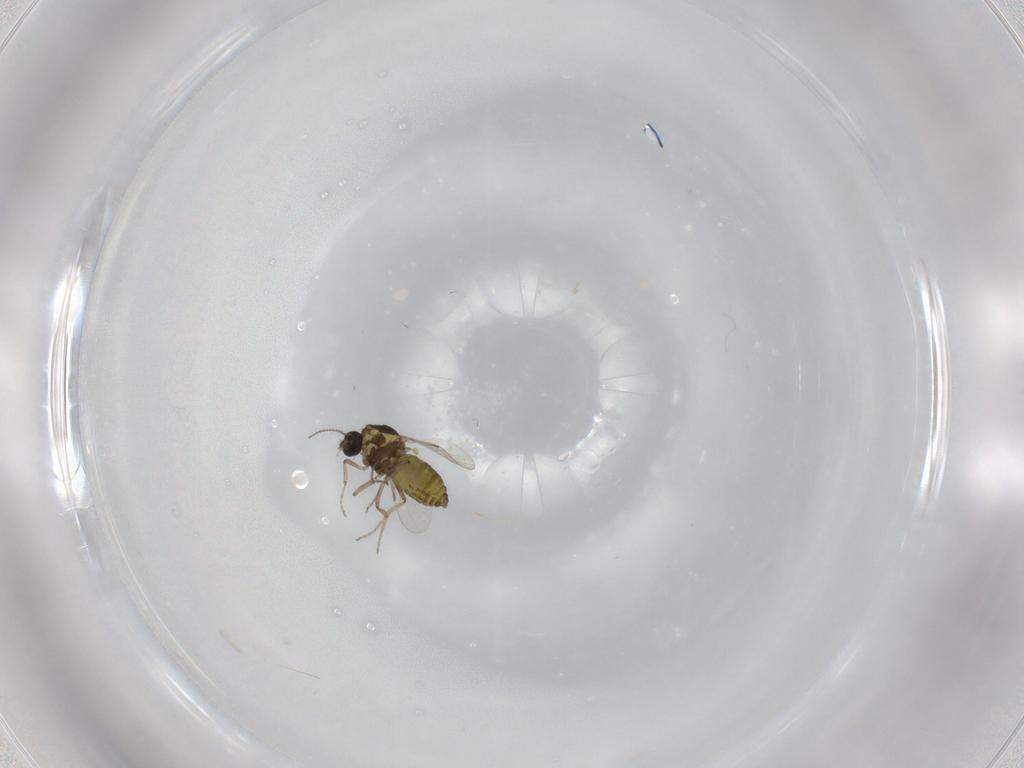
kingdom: Animalia
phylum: Arthropoda
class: Insecta
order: Diptera
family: Ceratopogonidae
